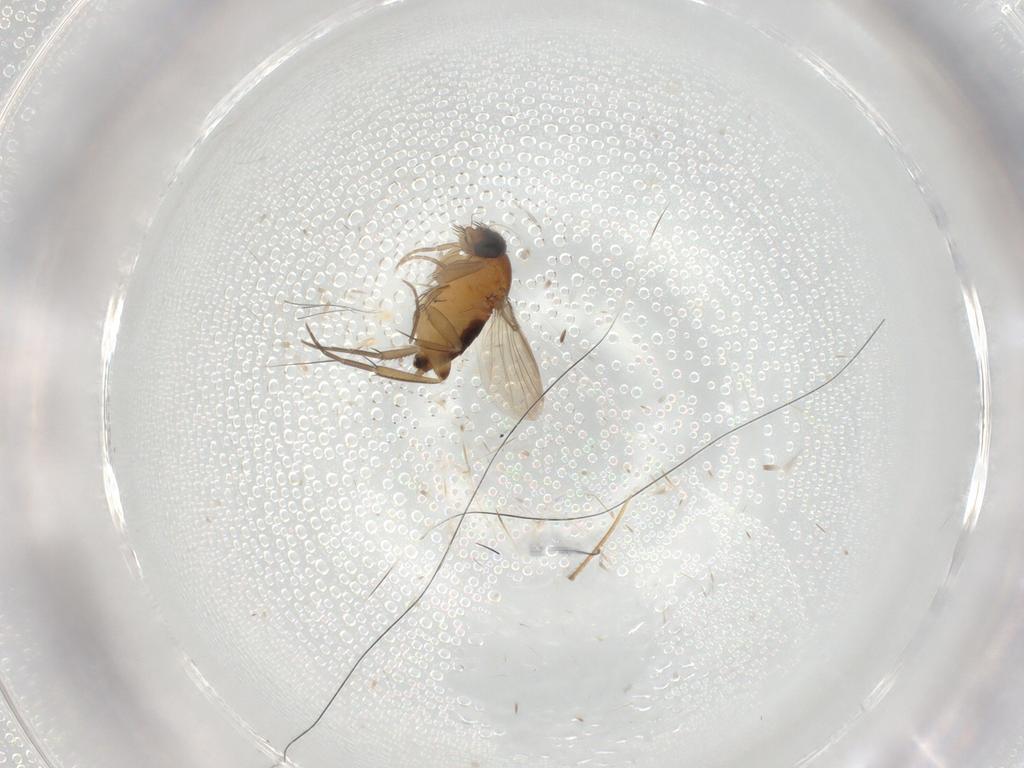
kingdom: Animalia
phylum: Arthropoda
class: Insecta
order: Diptera
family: Phoridae
